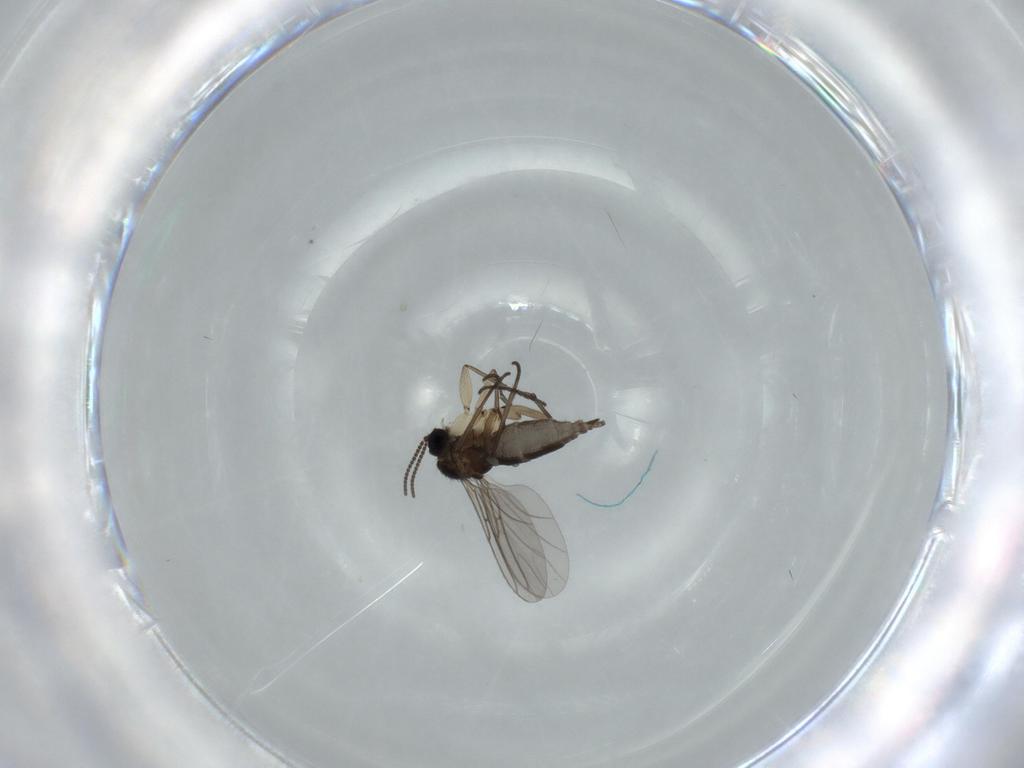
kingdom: Animalia
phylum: Arthropoda
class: Insecta
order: Diptera
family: Sciaridae
